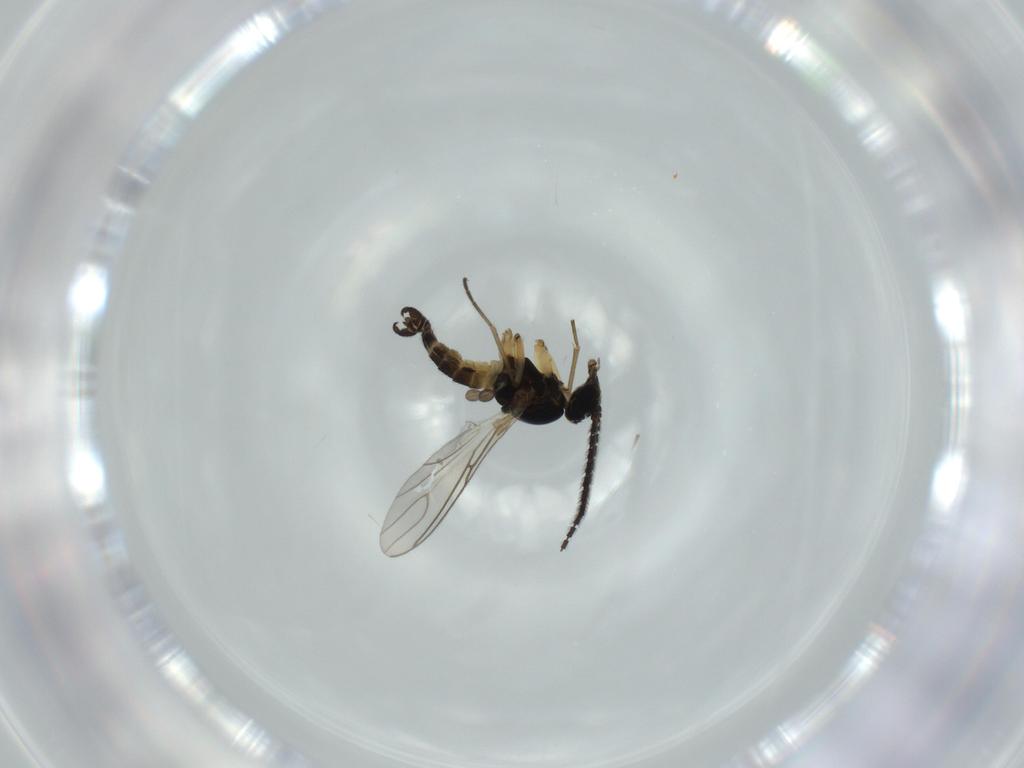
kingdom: Animalia
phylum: Arthropoda
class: Insecta
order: Diptera
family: Sciaridae
